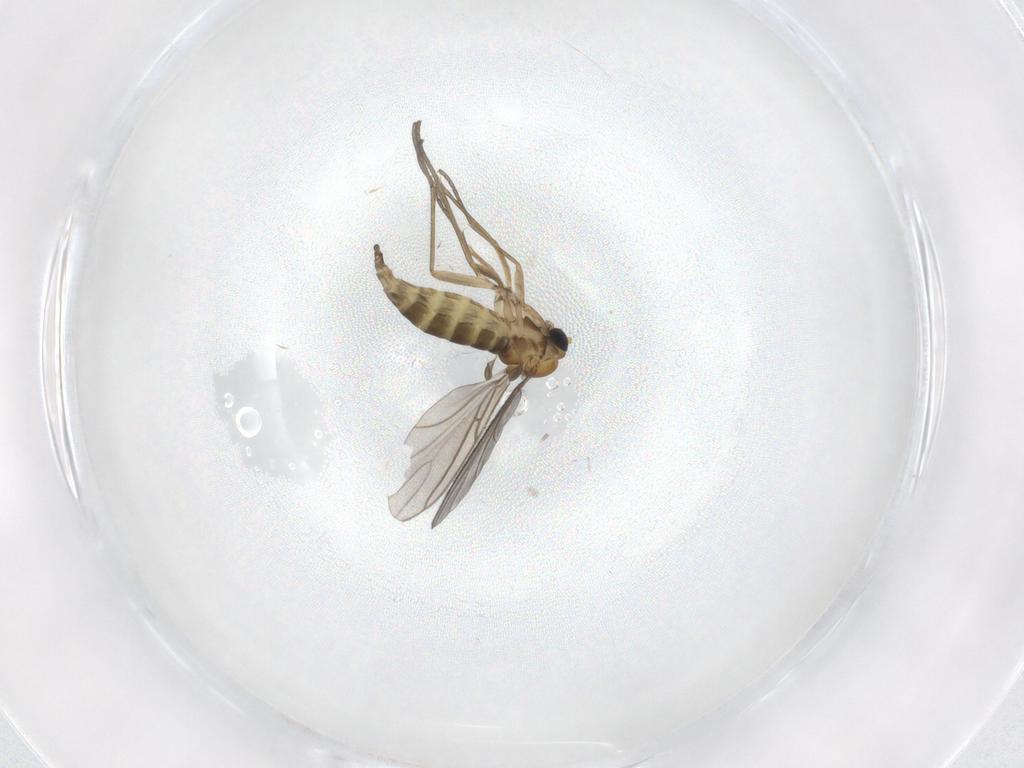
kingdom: Animalia
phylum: Arthropoda
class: Insecta
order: Diptera
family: Sciaridae
